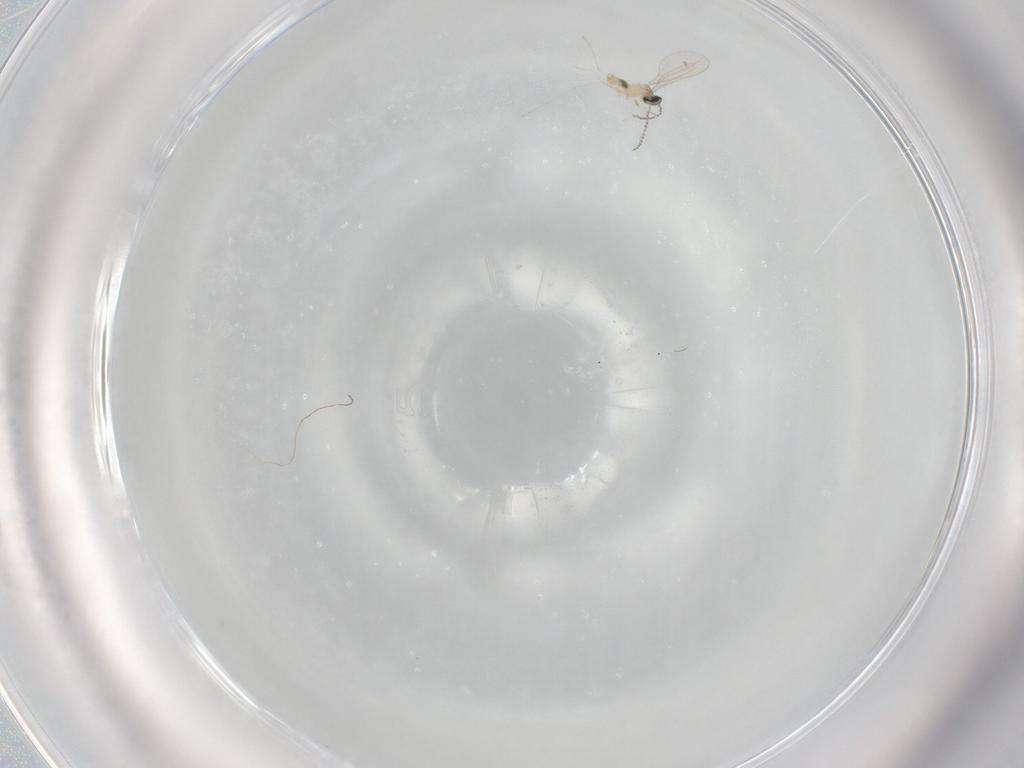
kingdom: Animalia
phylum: Arthropoda
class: Insecta
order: Diptera
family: Cecidomyiidae
